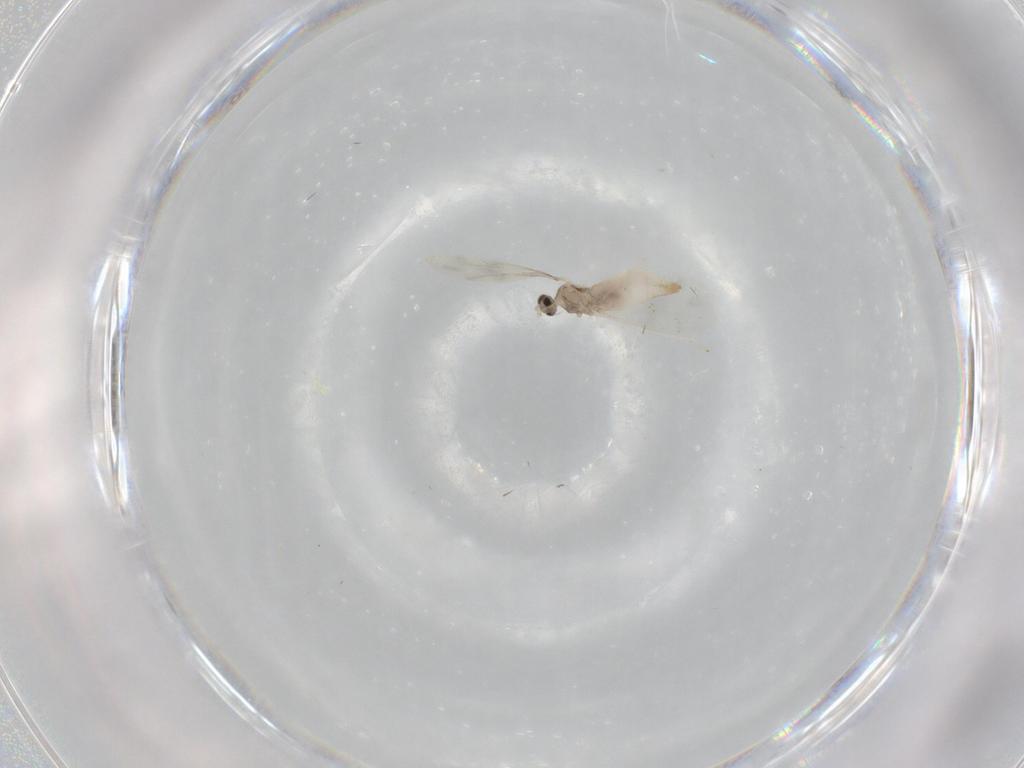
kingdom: Animalia
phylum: Arthropoda
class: Insecta
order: Diptera
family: Cecidomyiidae
